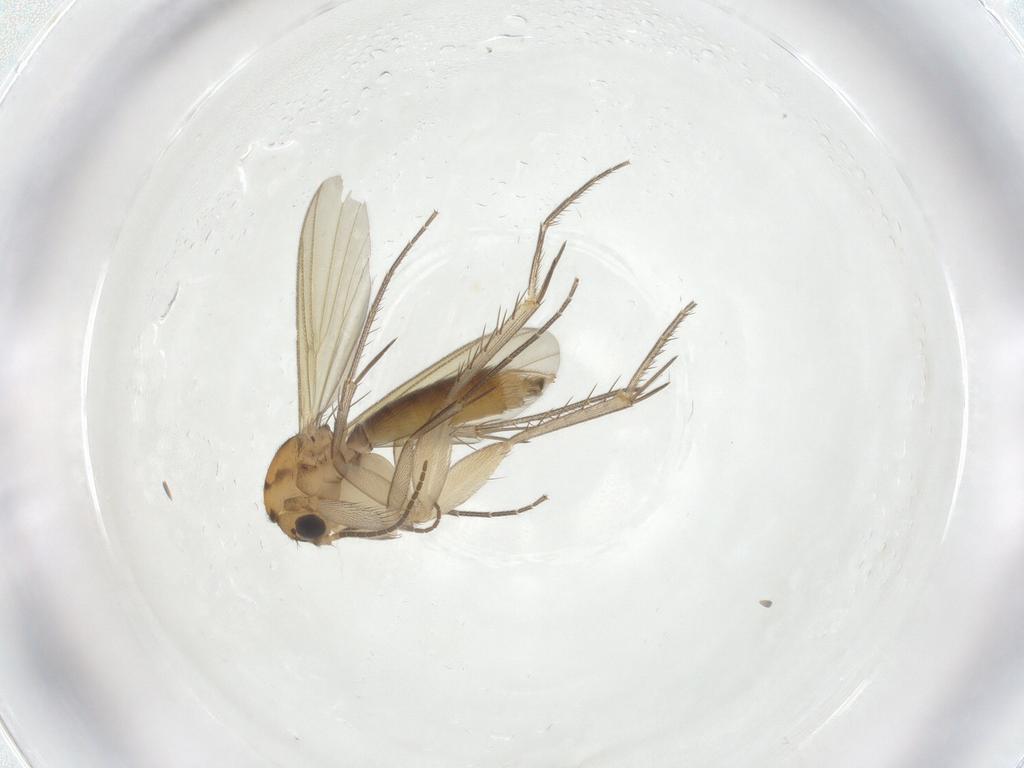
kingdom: Animalia
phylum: Arthropoda
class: Insecta
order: Diptera
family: Mycetophilidae
